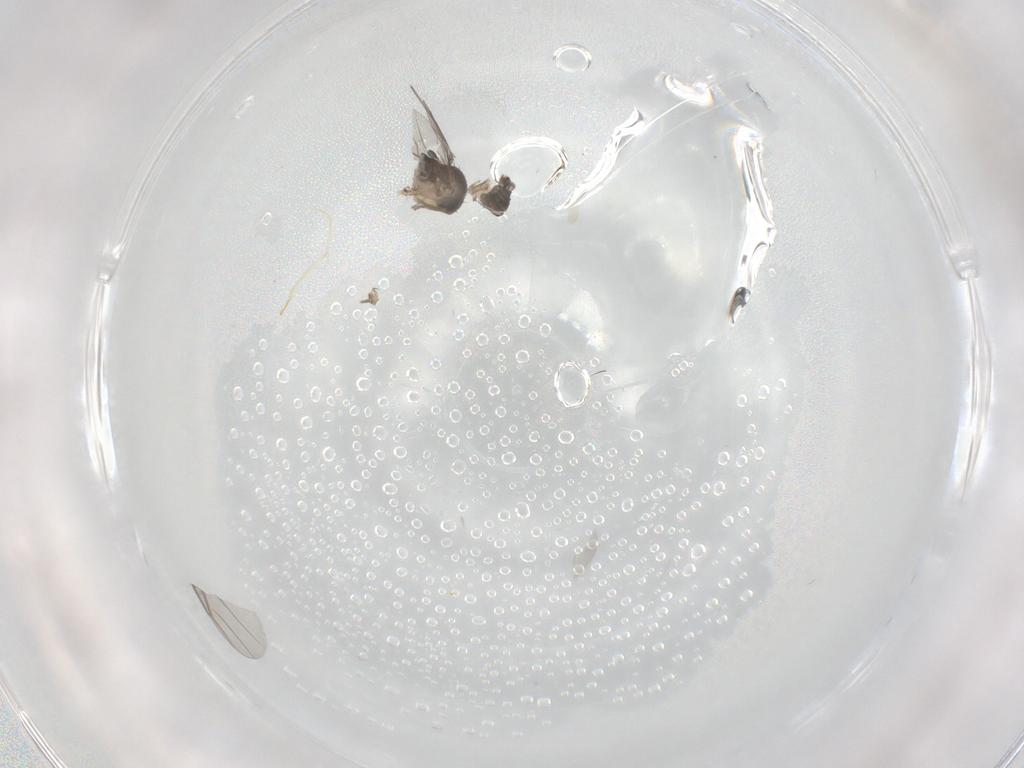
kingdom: Animalia
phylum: Arthropoda
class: Insecta
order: Diptera
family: Phoridae
